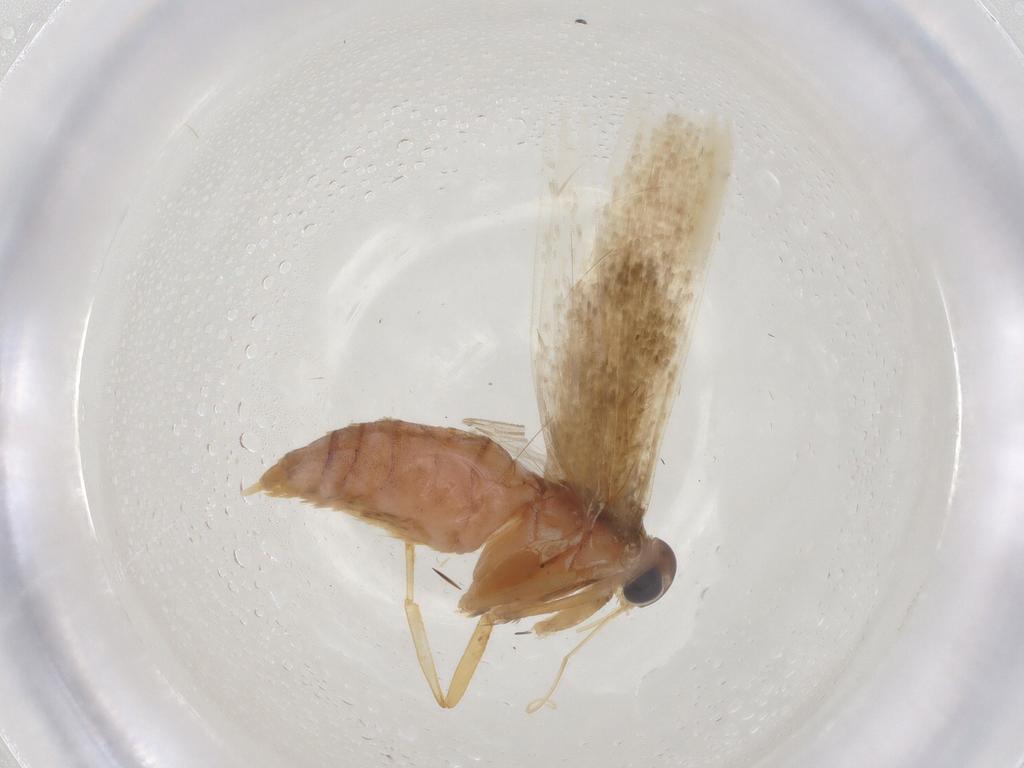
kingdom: Animalia
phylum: Arthropoda
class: Insecta
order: Lepidoptera
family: Blastobasidae
